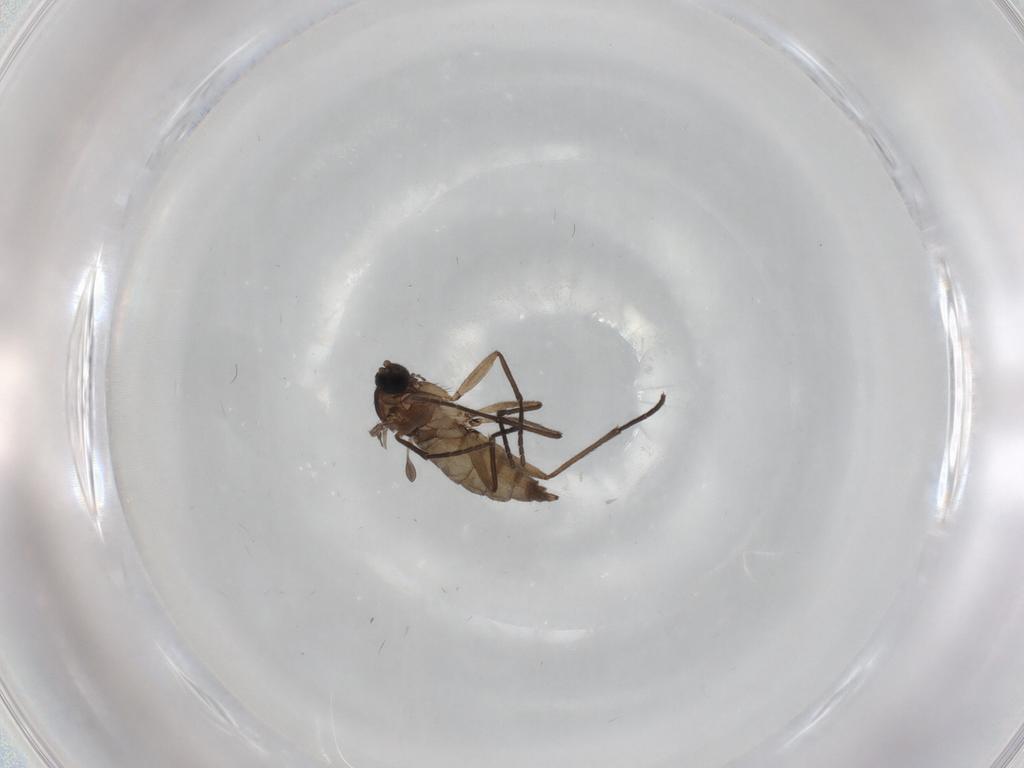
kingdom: Animalia
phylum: Arthropoda
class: Insecta
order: Diptera
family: Sciaridae
